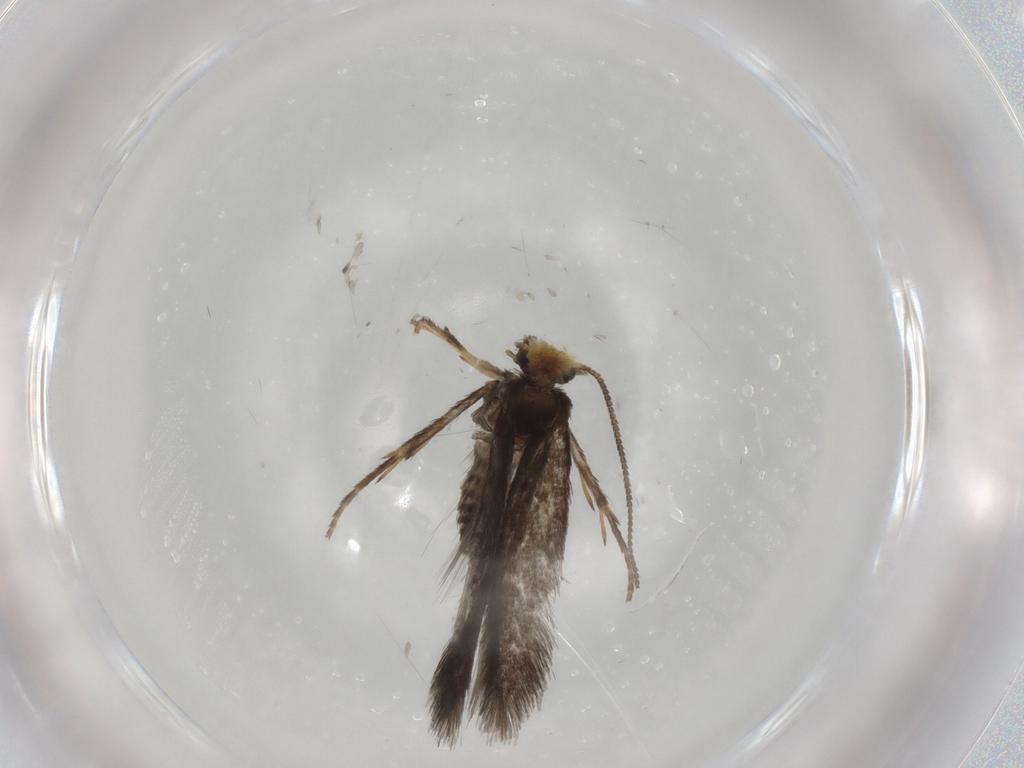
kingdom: Animalia
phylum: Arthropoda
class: Insecta
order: Lepidoptera
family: Nepticulidae
